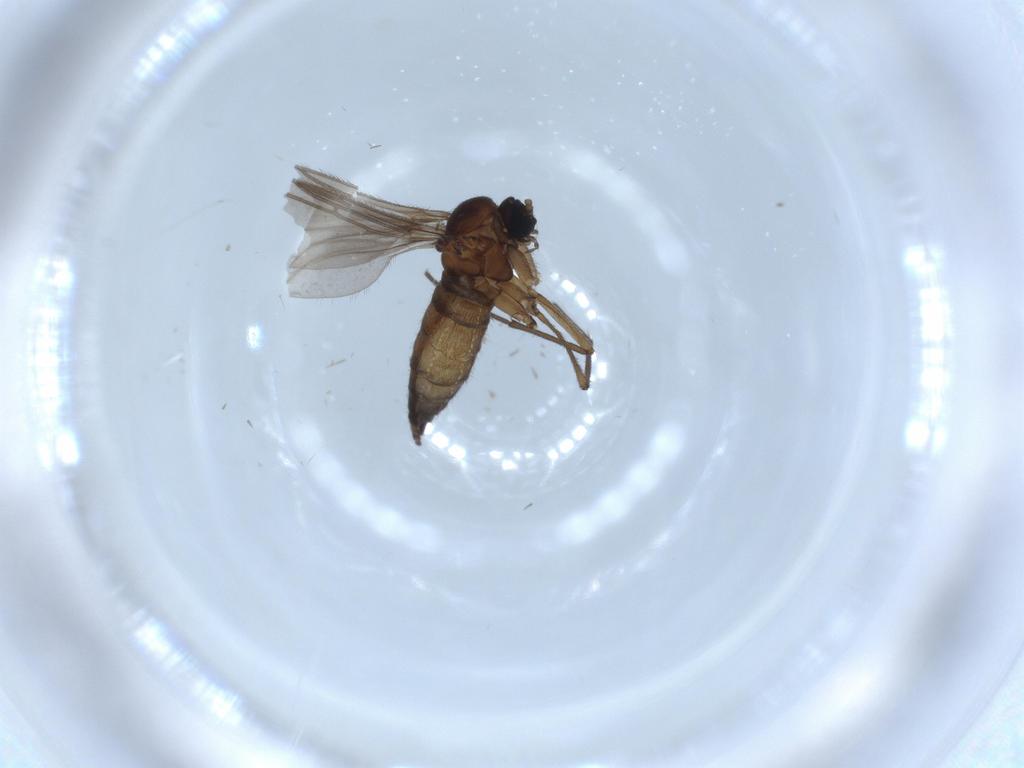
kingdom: Animalia
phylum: Arthropoda
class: Insecta
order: Diptera
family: Sciaridae
